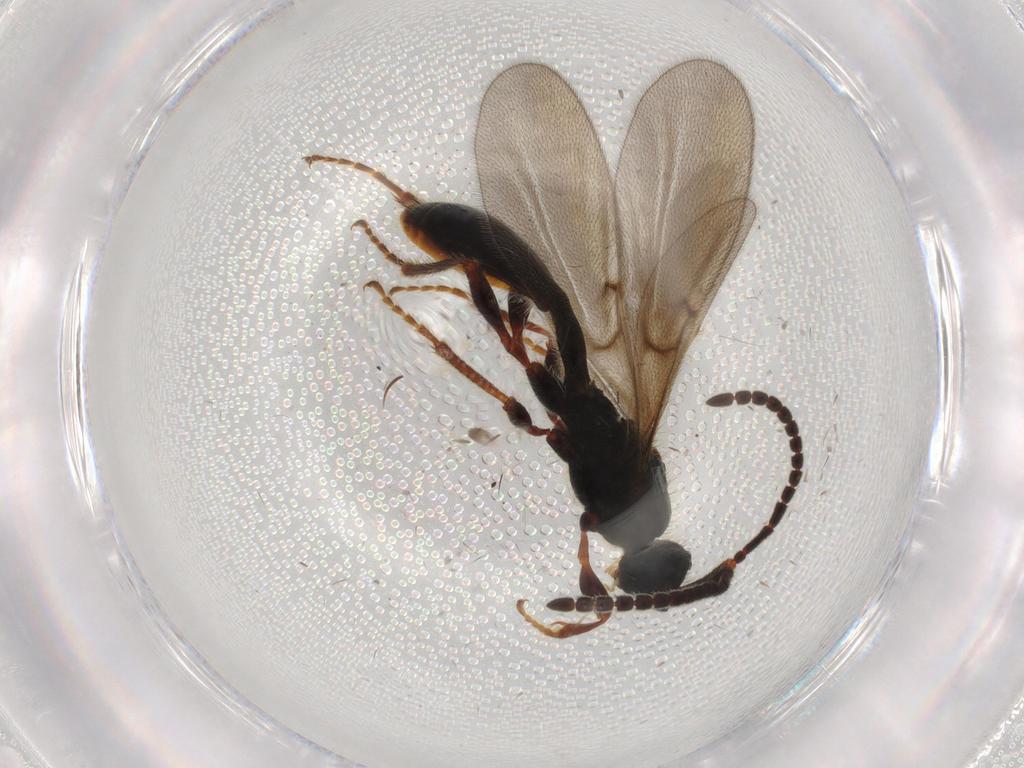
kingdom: Animalia
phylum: Arthropoda
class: Insecta
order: Hymenoptera
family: Diapriidae
